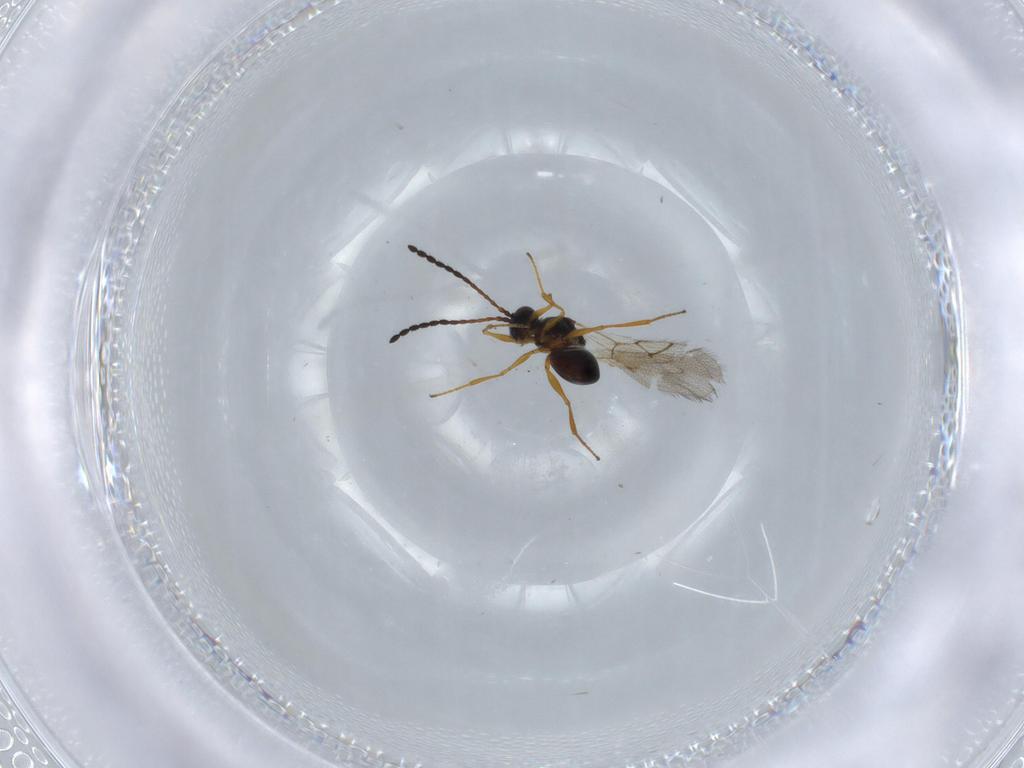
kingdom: Animalia
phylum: Arthropoda
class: Insecta
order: Hymenoptera
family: Figitidae
